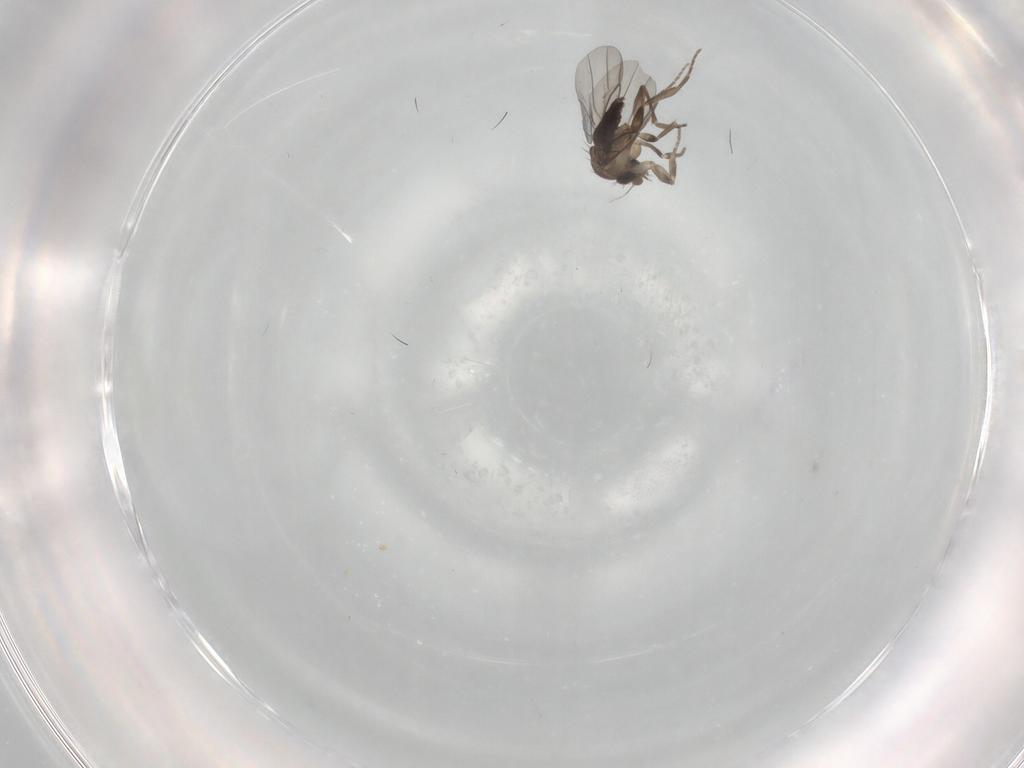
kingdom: Animalia
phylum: Arthropoda
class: Insecta
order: Diptera
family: Phoridae
